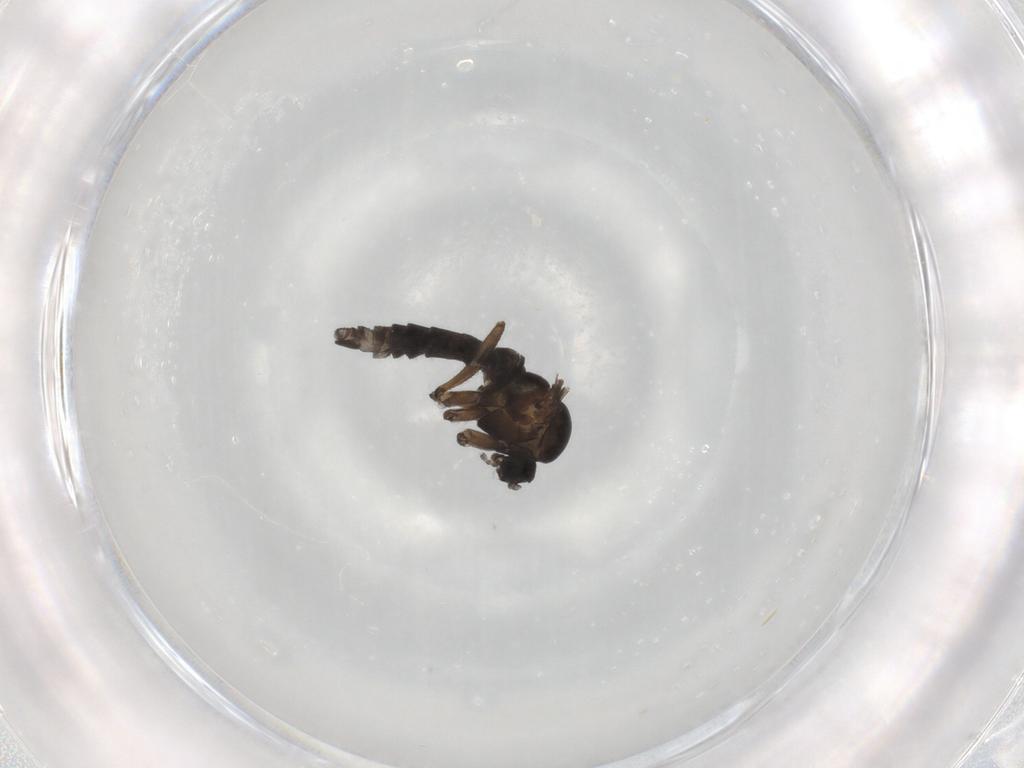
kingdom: Animalia
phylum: Arthropoda
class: Insecta
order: Diptera
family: Sciaridae
